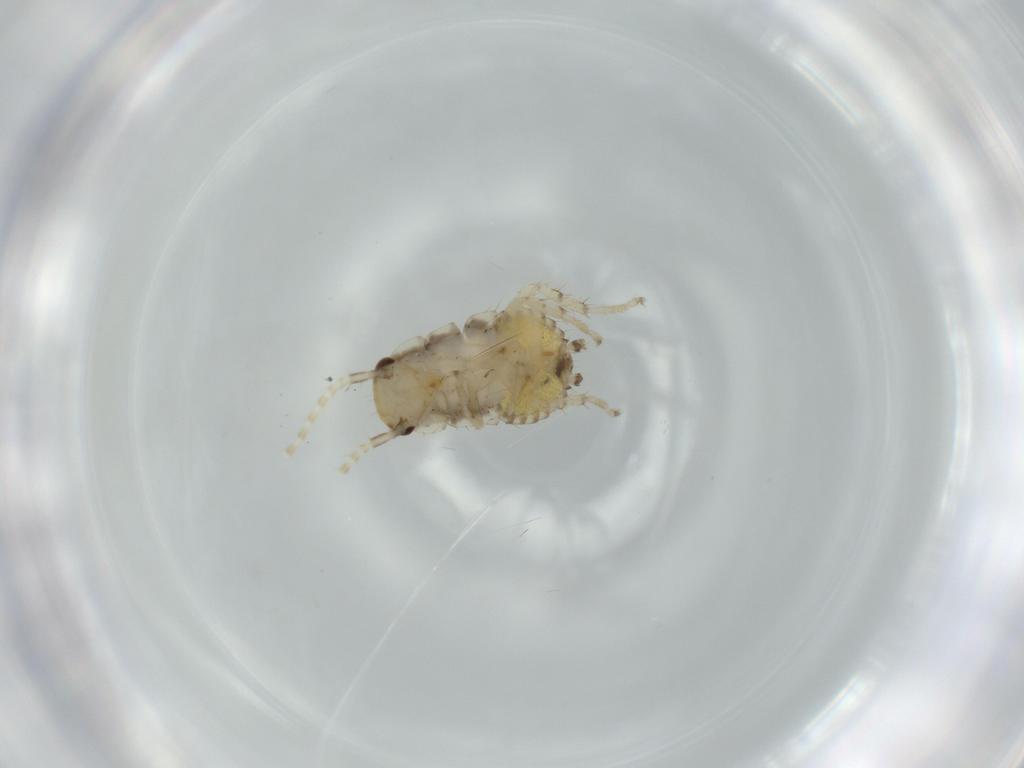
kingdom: Animalia
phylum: Arthropoda
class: Insecta
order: Blattodea
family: Ectobiidae
